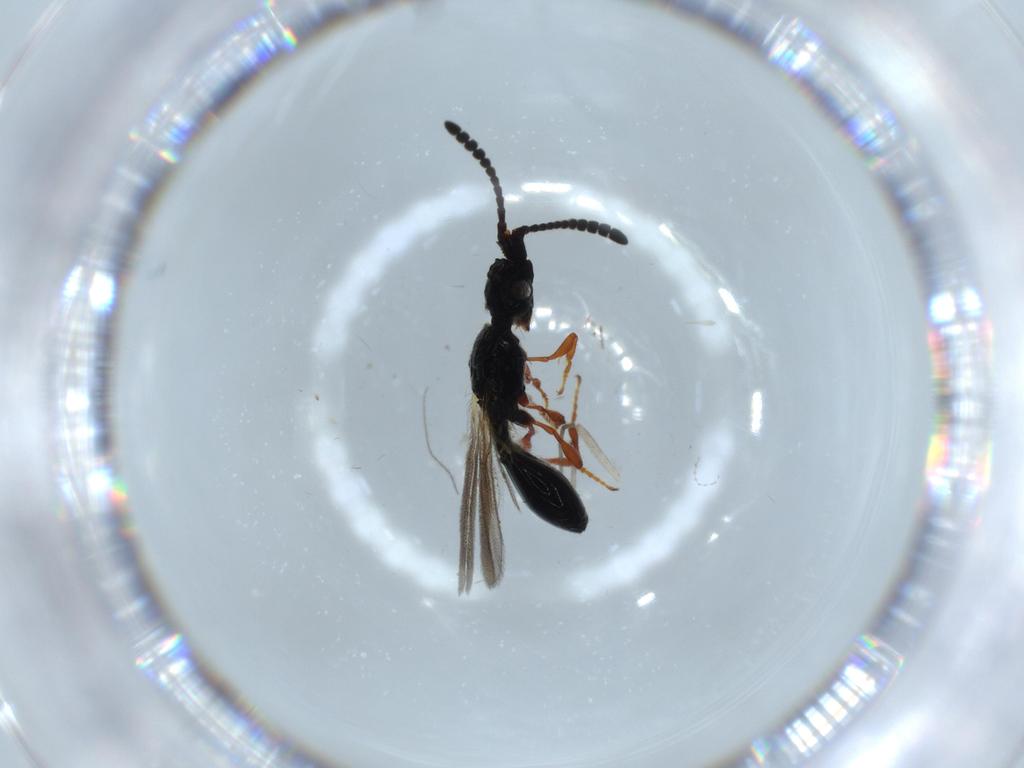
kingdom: Animalia
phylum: Arthropoda
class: Insecta
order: Hymenoptera
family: Diapriidae
